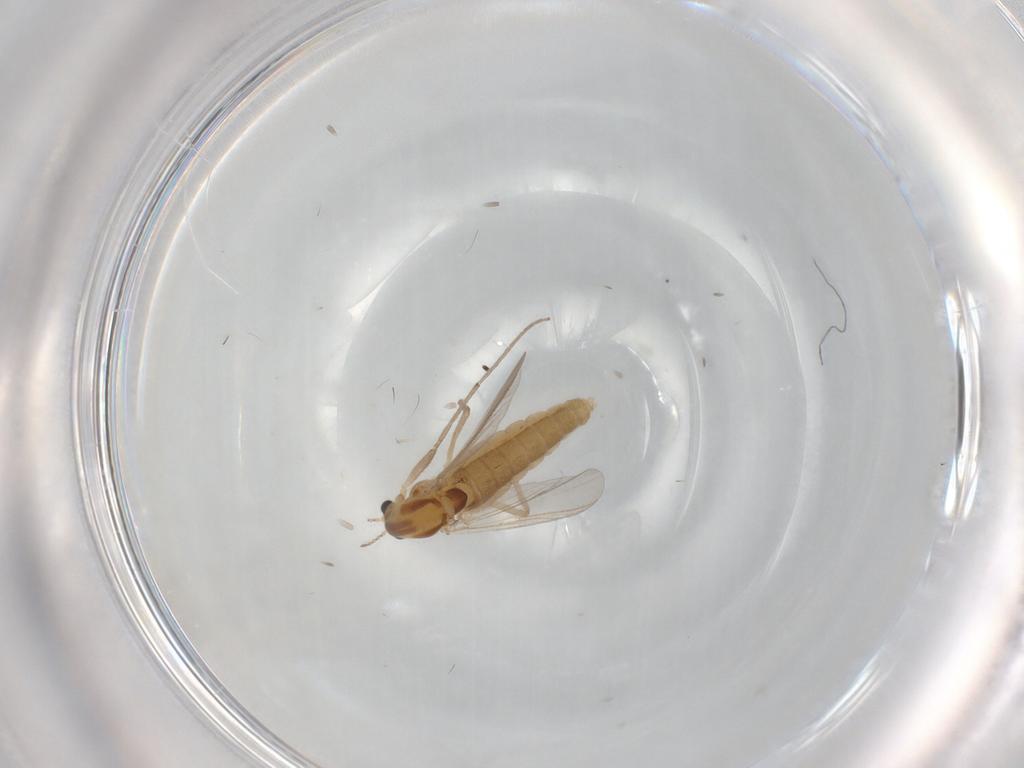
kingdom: Animalia
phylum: Arthropoda
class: Insecta
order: Diptera
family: Chironomidae
